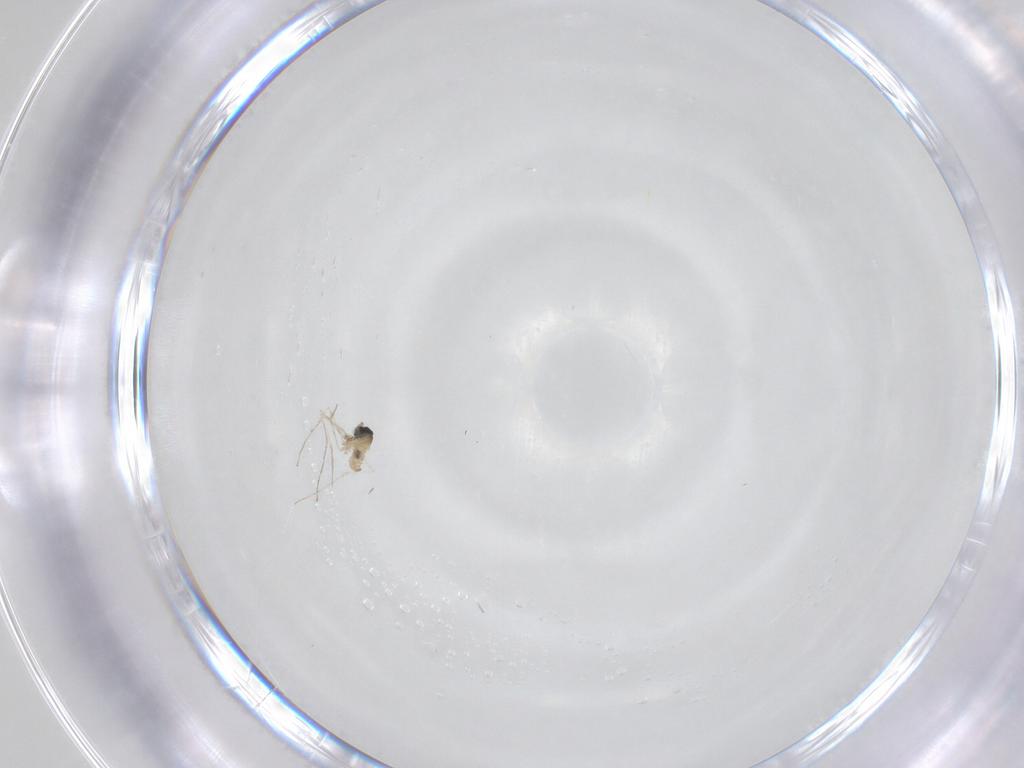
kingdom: Animalia
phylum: Arthropoda
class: Insecta
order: Diptera
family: Cecidomyiidae
